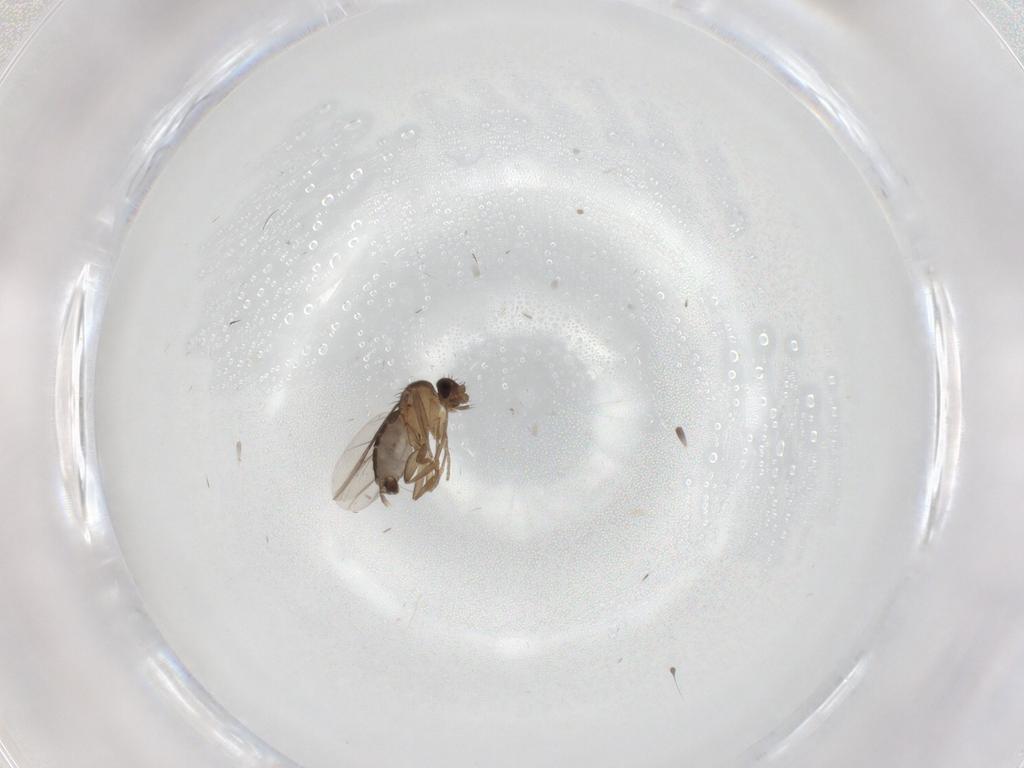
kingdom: Animalia
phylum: Arthropoda
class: Insecta
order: Diptera
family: Phoridae
